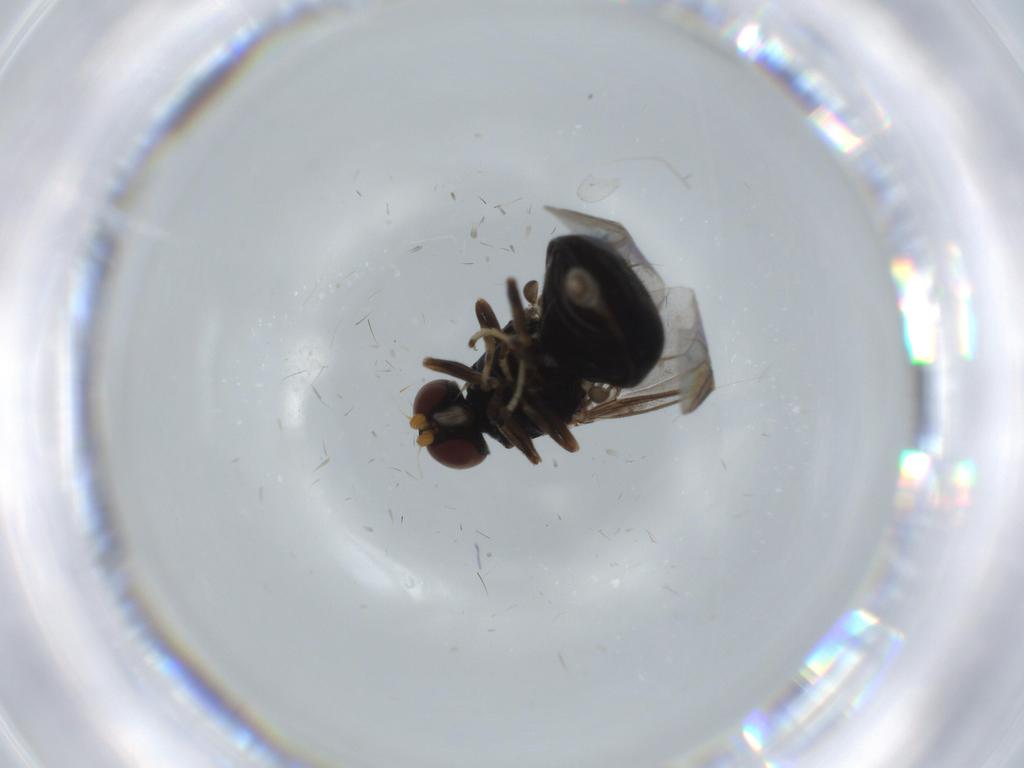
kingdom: Animalia
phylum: Arthropoda
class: Insecta
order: Diptera
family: Stratiomyidae
